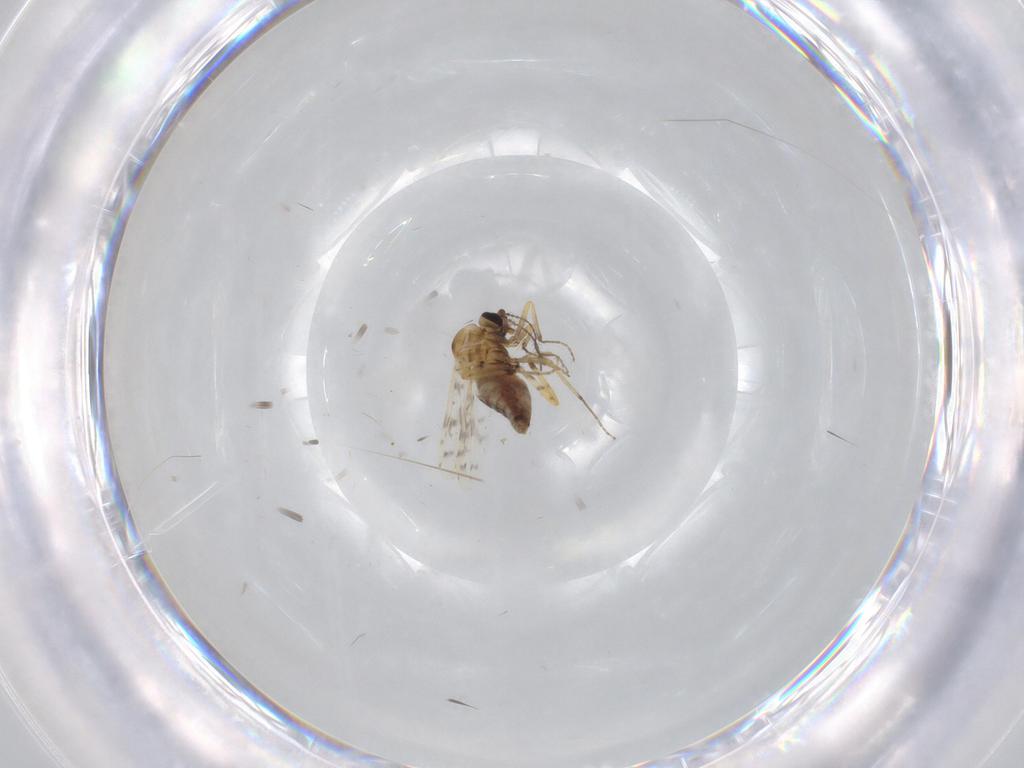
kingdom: Animalia
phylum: Arthropoda
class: Insecta
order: Diptera
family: Ceratopogonidae
